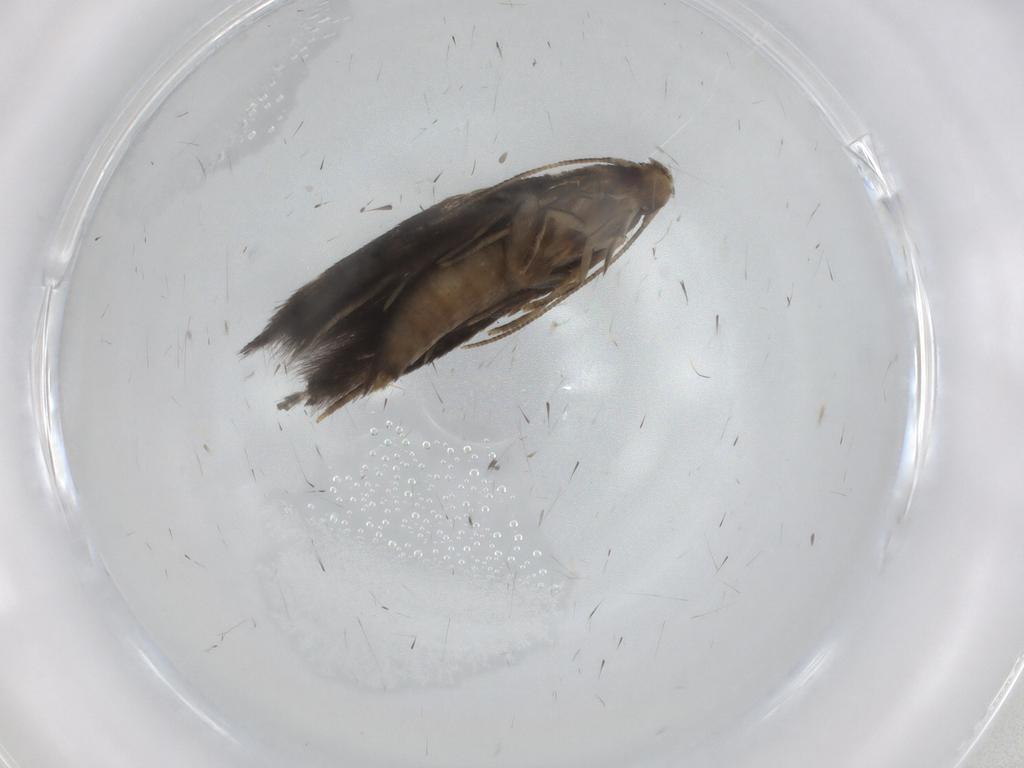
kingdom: Animalia
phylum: Arthropoda
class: Insecta
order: Lepidoptera
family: Gelechiidae
